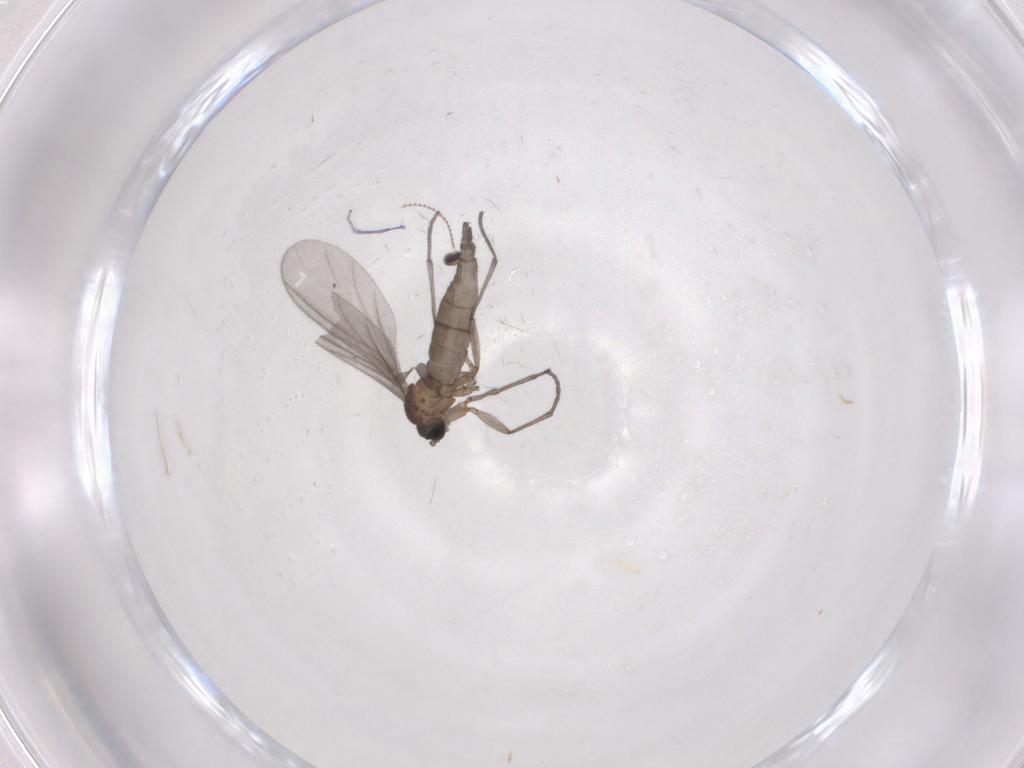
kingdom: Animalia
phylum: Arthropoda
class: Insecta
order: Diptera
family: Sciaridae
